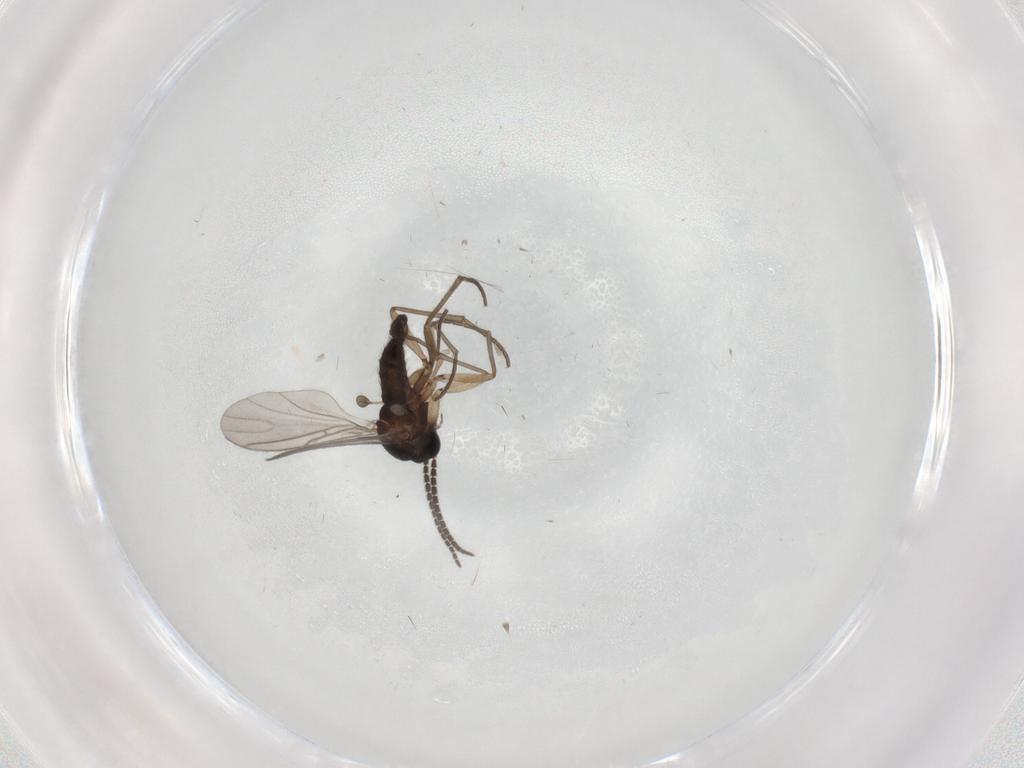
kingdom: Animalia
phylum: Arthropoda
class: Insecta
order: Diptera
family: Sciaridae
